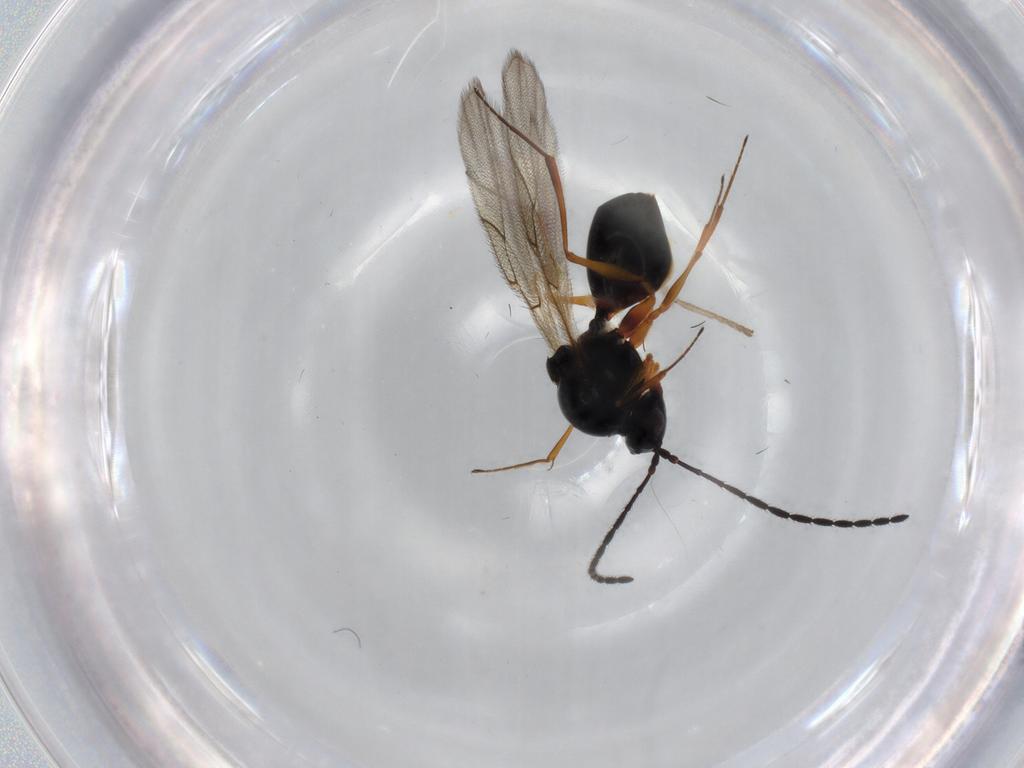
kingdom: Animalia
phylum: Arthropoda
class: Insecta
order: Hymenoptera
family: Figitidae
